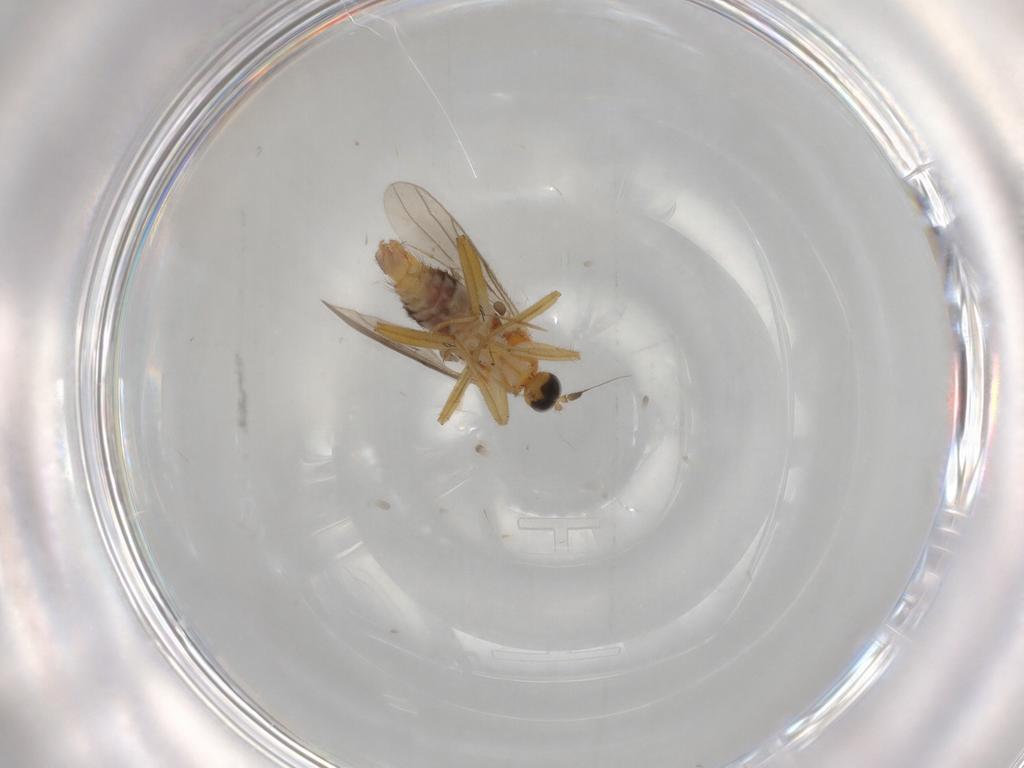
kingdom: Animalia
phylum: Arthropoda
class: Insecta
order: Diptera
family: Hybotidae
